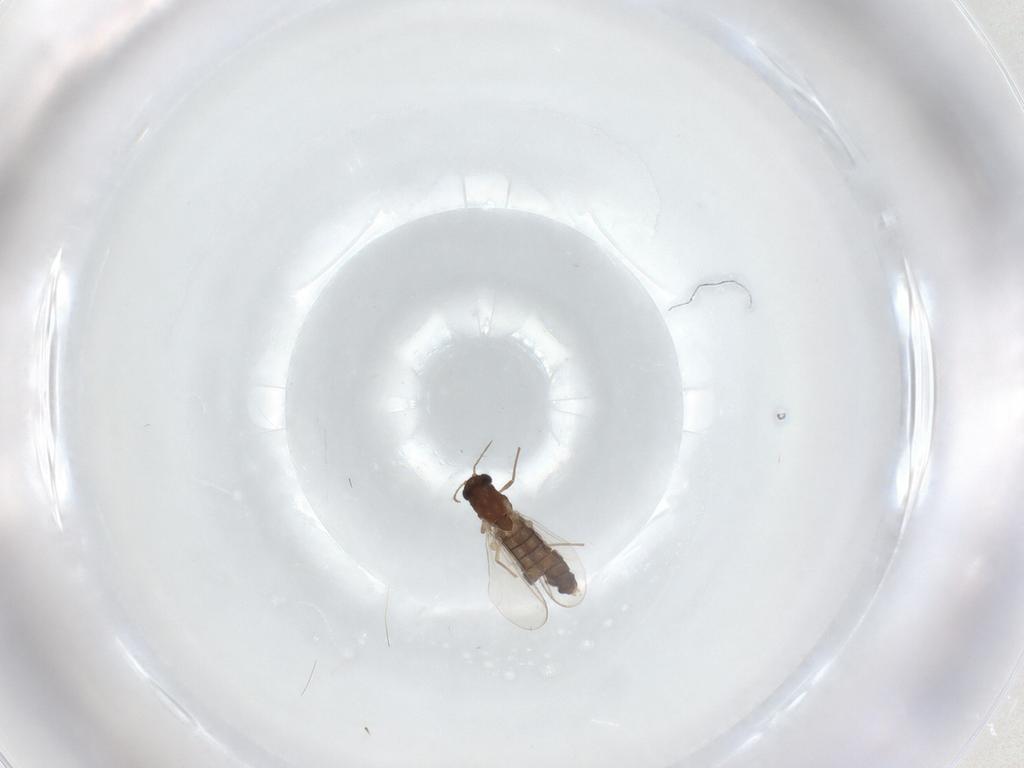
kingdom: Animalia
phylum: Arthropoda
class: Insecta
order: Diptera
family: Chironomidae
